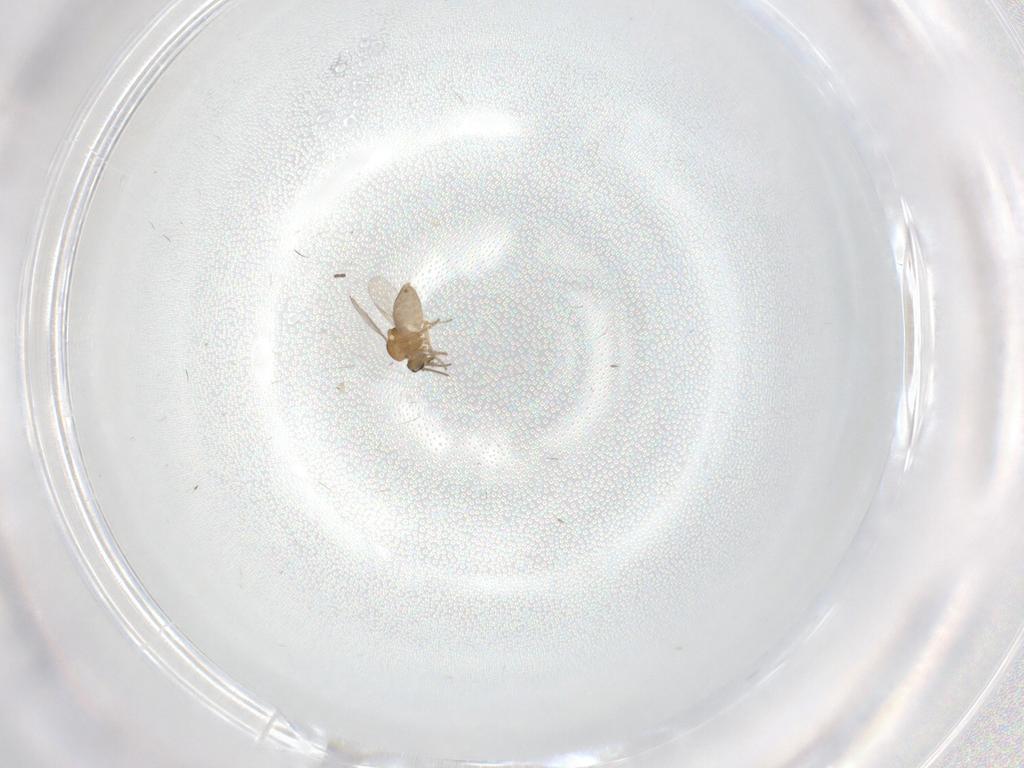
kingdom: Animalia
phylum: Arthropoda
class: Insecta
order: Diptera
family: Ceratopogonidae
